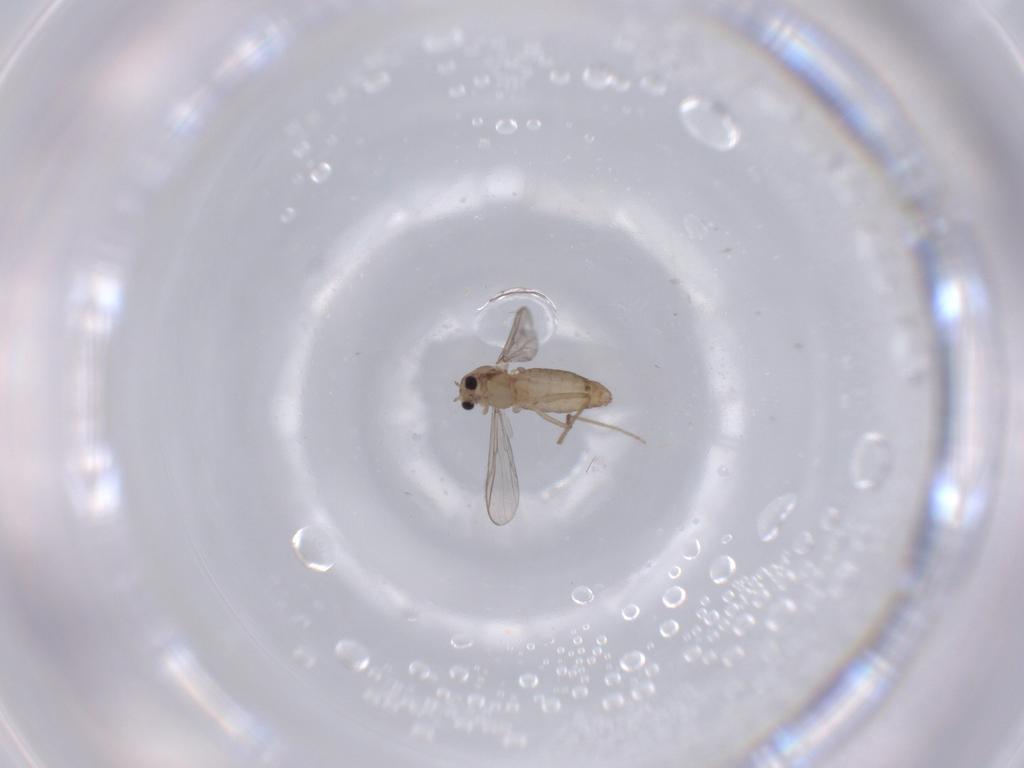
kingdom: Animalia
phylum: Arthropoda
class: Insecta
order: Diptera
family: Chironomidae
